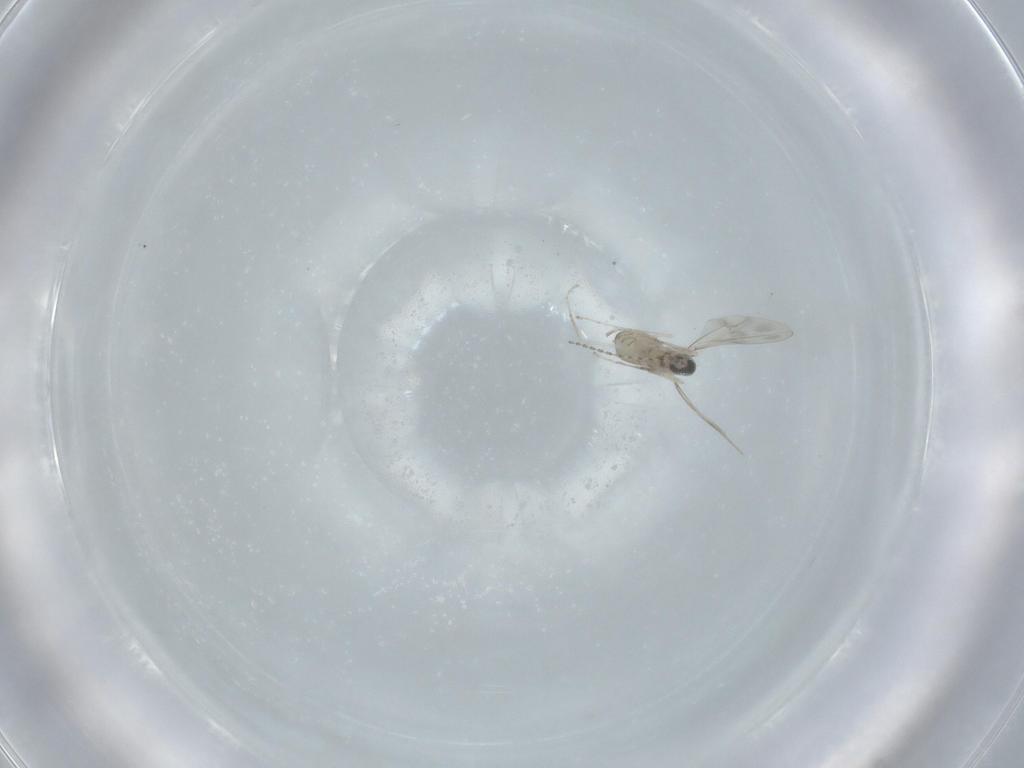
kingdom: Animalia
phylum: Arthropoda
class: Insecta
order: Diptera
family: Cecidomyiidae
